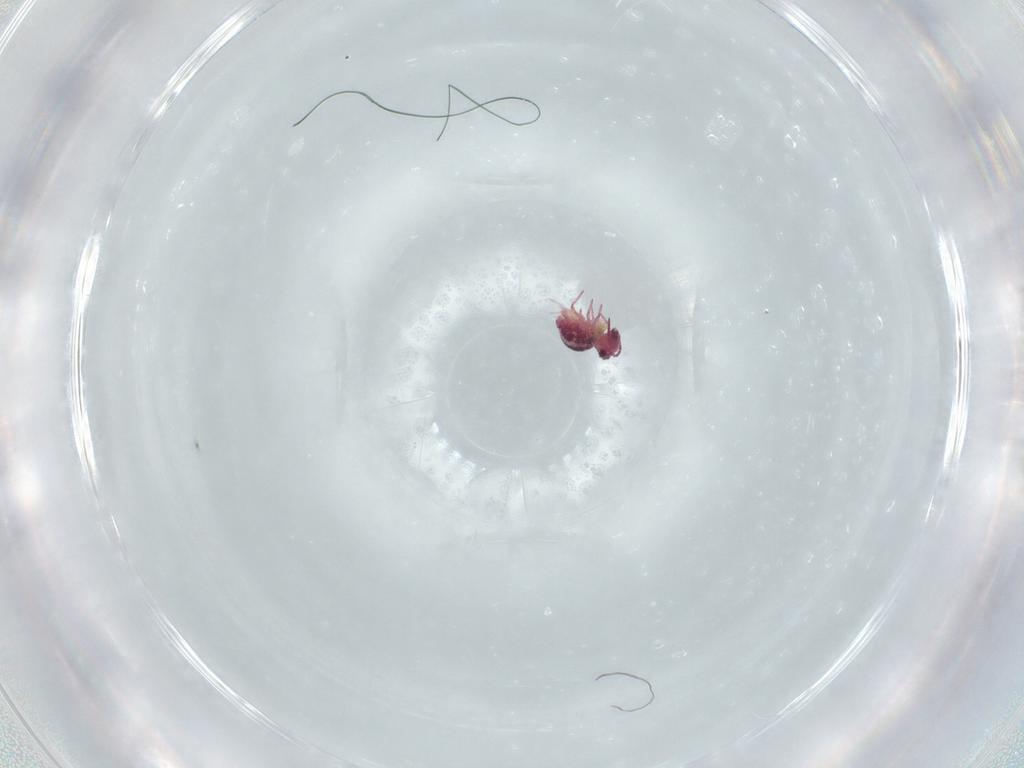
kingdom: Animalia
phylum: Arthropoda
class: Collembola
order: Symphypleona
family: Sminthurididae
